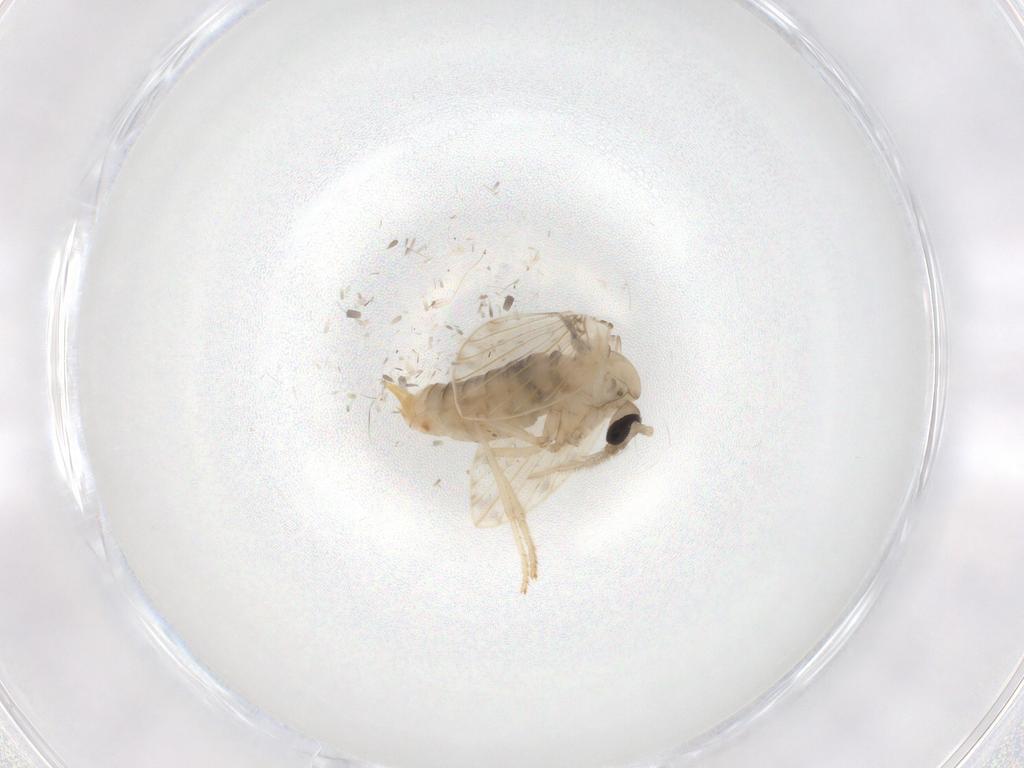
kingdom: Animalia
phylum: Arthropoda
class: Insecta
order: Diptera
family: Psychodidae
